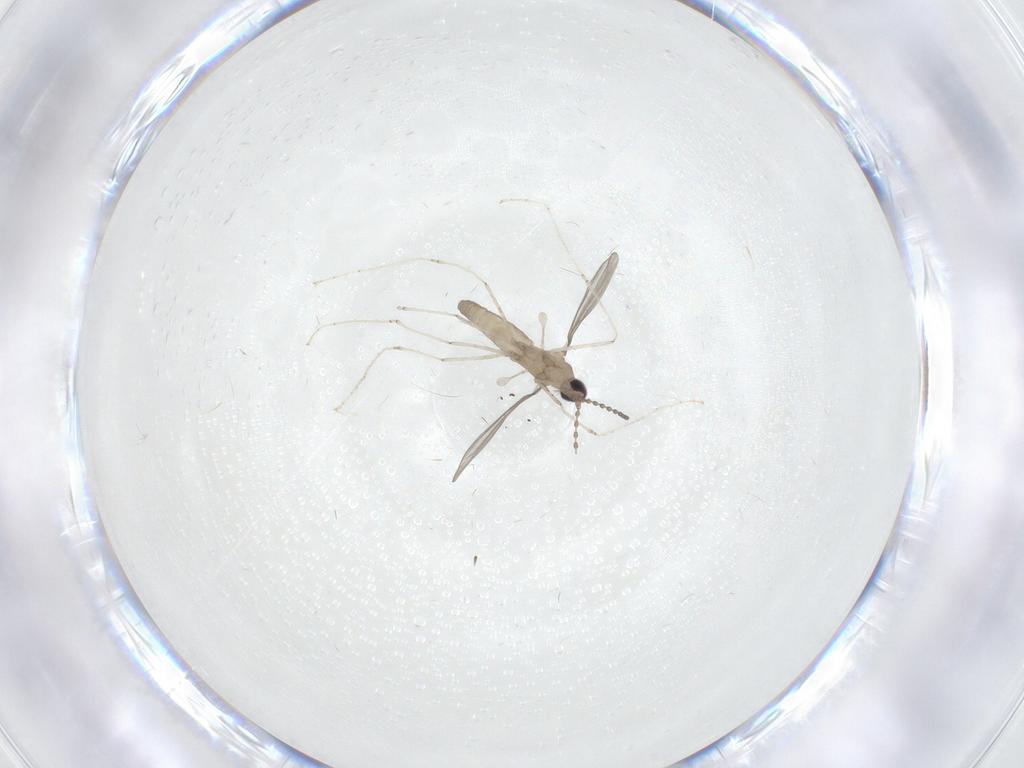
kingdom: Animalia
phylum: Arthropoda
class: Insecta
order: Diptera
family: Cecidomyiidae
